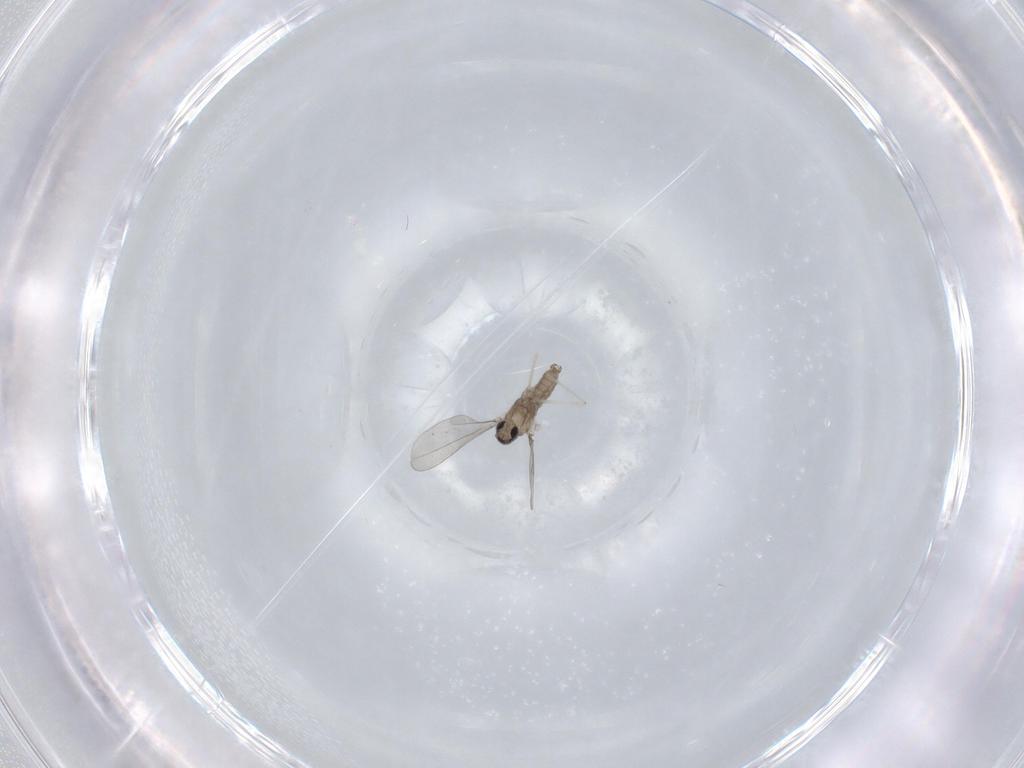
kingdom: Animalia
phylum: Arthropoda
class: Insecta
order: Diptera
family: Cecidomyiidae
